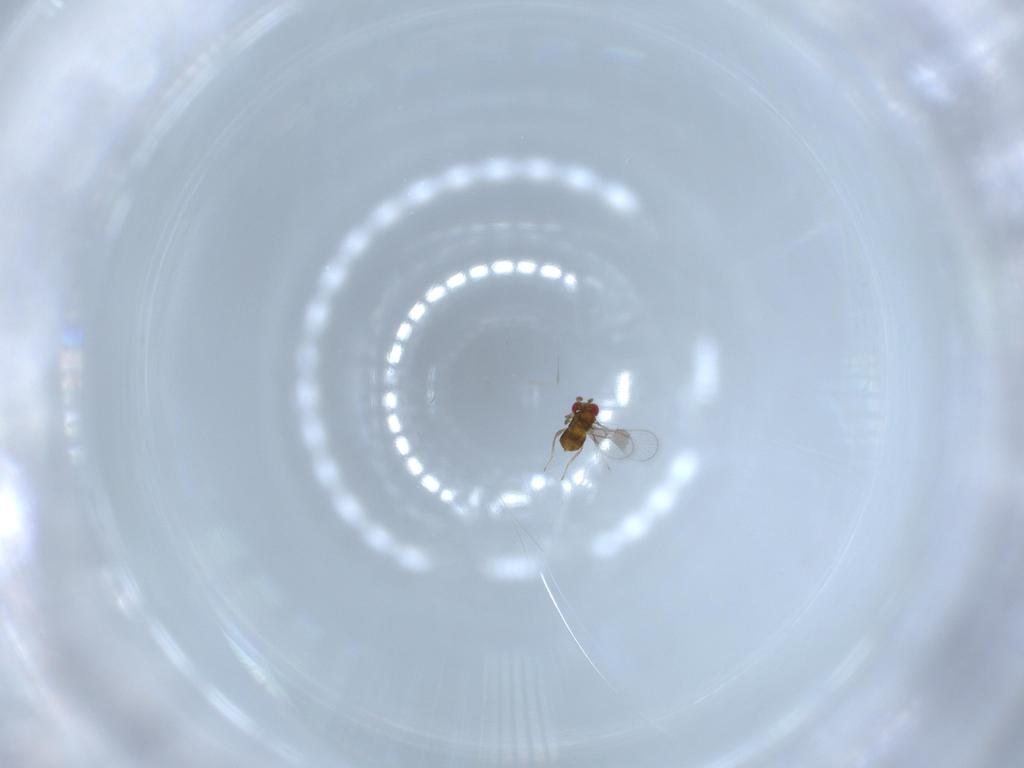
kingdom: Animalia
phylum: Arthropoda
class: Insecta
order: Hymenoptera
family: Trichogrammatidae
